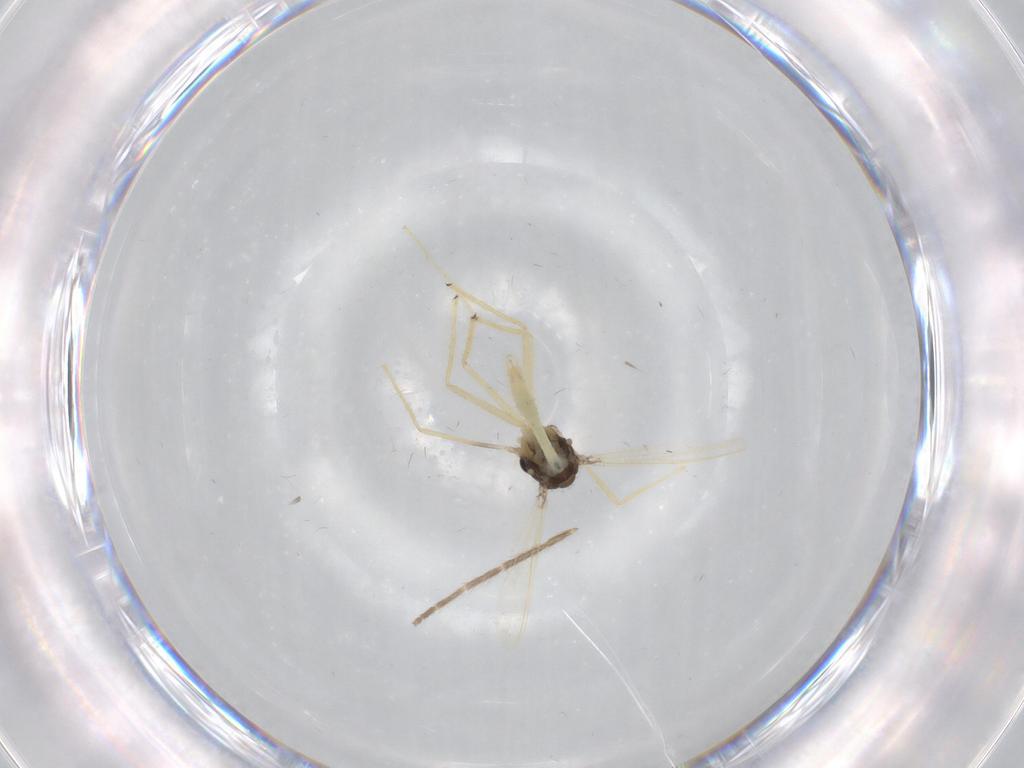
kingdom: Animalia
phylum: Arthropoda
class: Insecta
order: Diptera
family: Chironomidae
